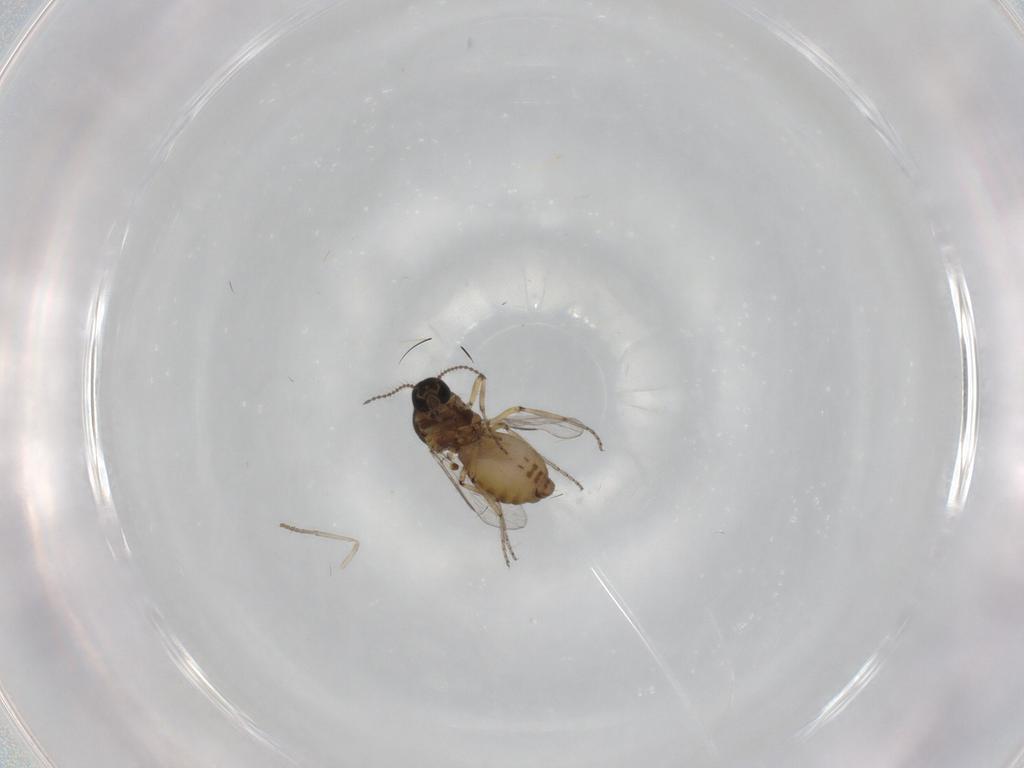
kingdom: Animalia
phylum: Arthropoda
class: Insecta
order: Diptera
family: Ceratopogonidae
